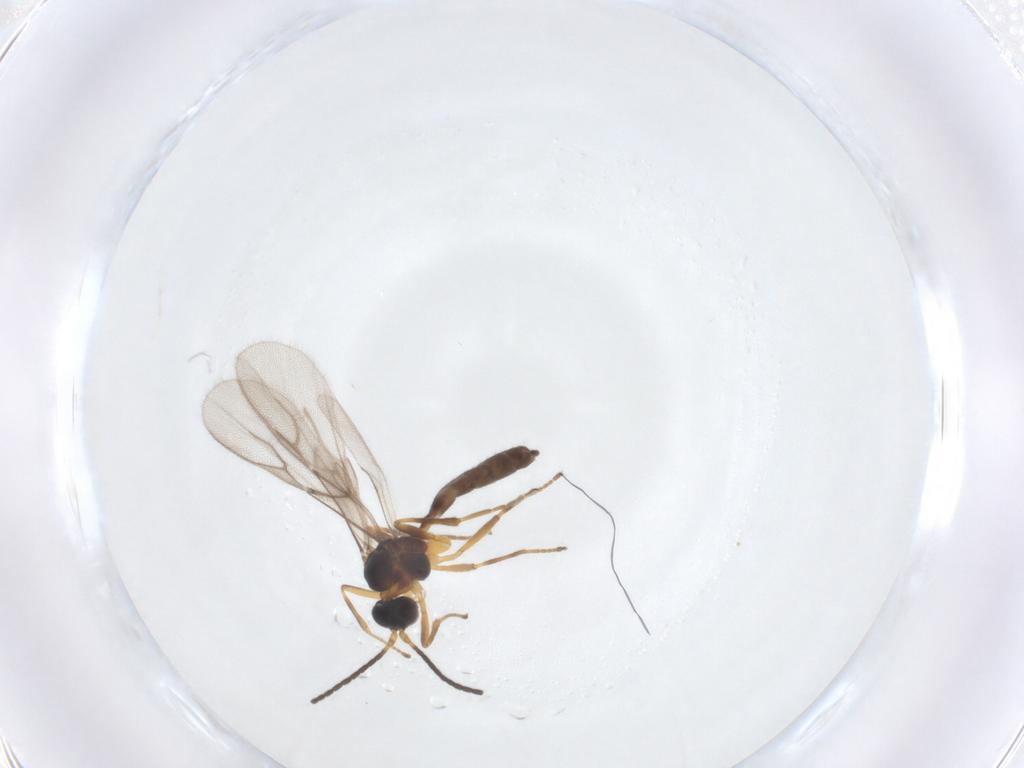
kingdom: Animalia
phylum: Arthropoda
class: Insecta
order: Hymenoptera
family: Braconidae
